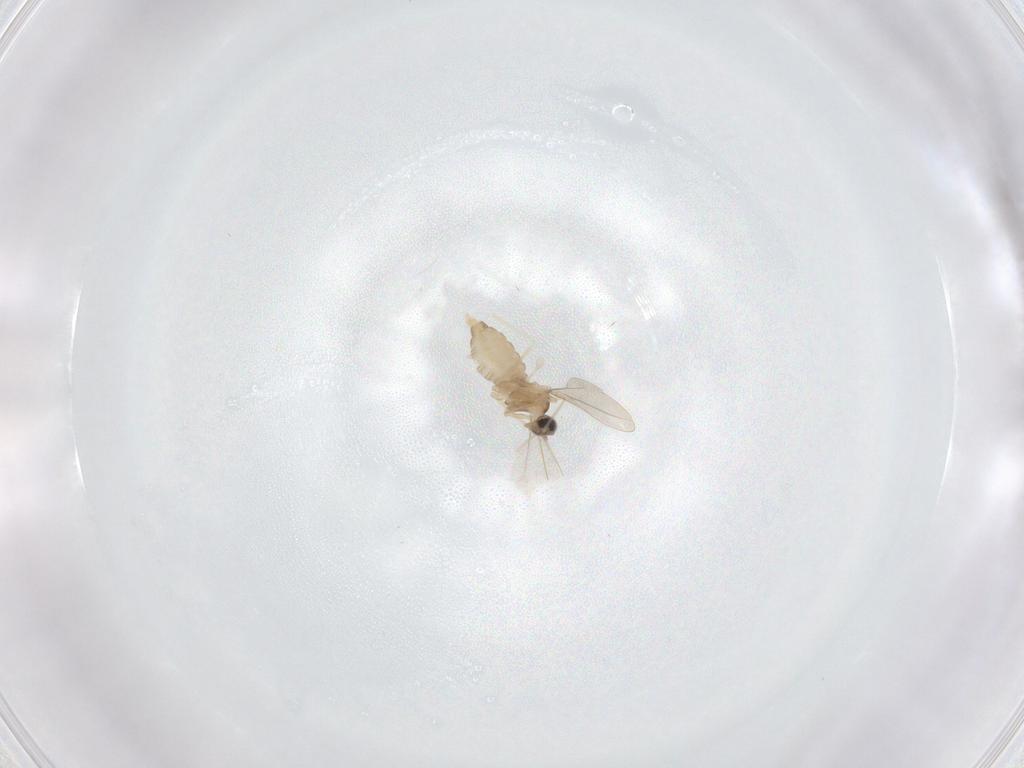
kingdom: Animalia
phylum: Arthropoda
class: Insecta
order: Diptera
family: Cecidomyiidae
